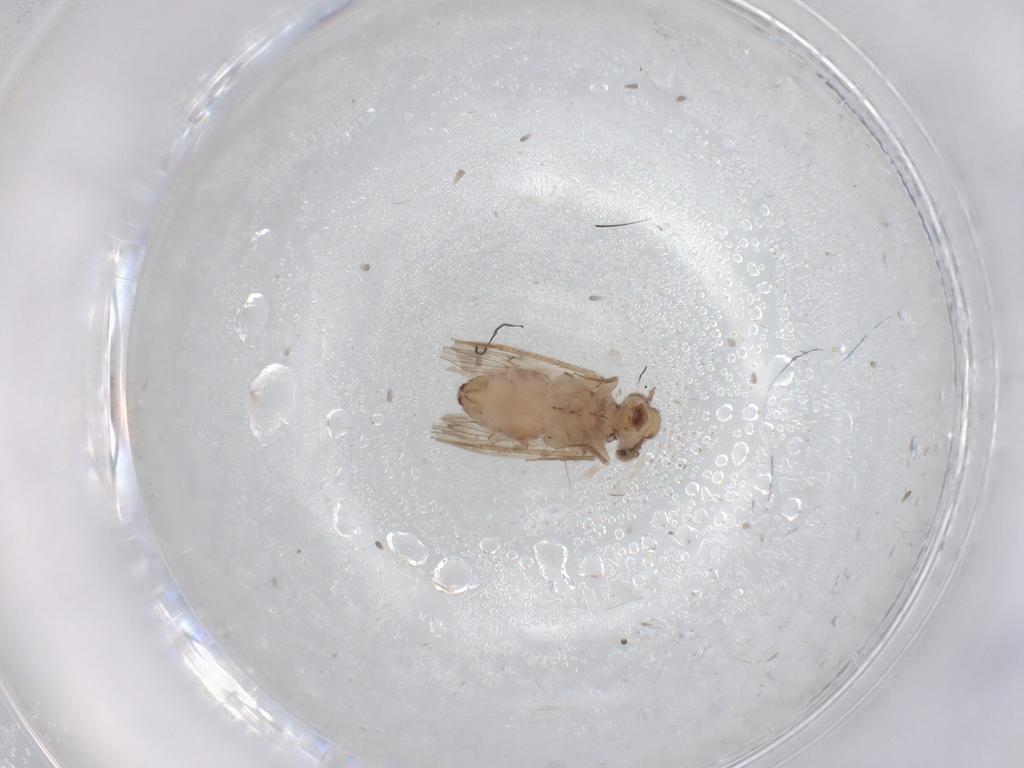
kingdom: Animalia
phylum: Arthropoda
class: Insecta
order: Psocodea
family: Lepidopsocidae
